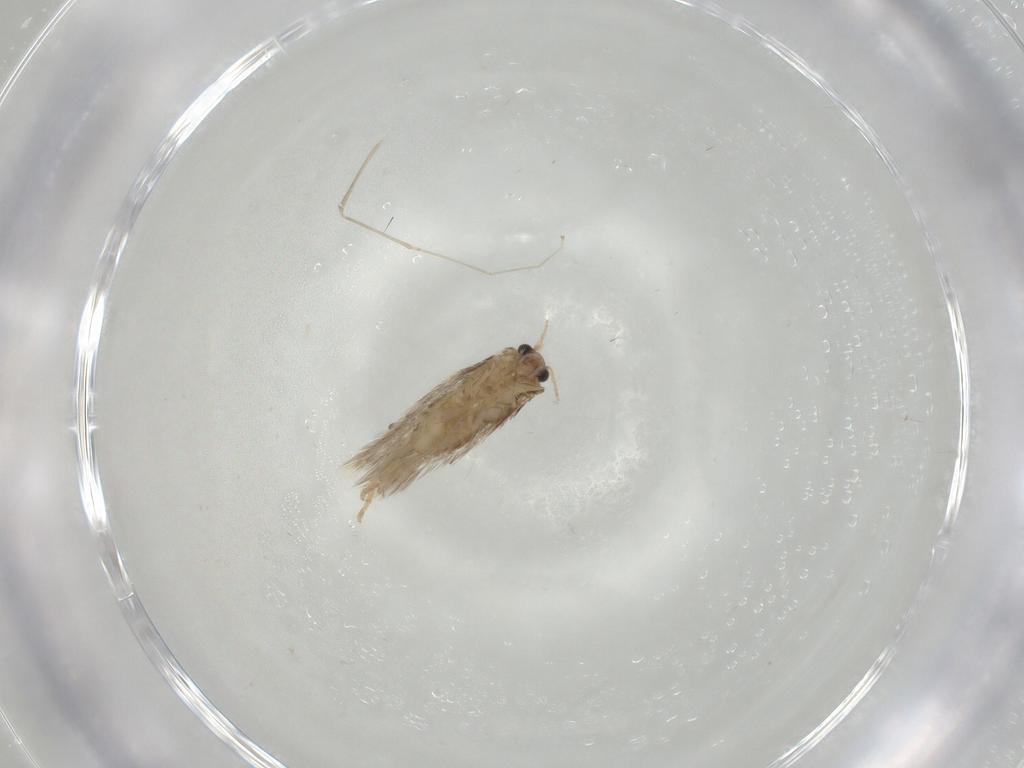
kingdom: Animalia
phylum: Arthropoda
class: Insecta
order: Lepidoptera
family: Nepticulidae
